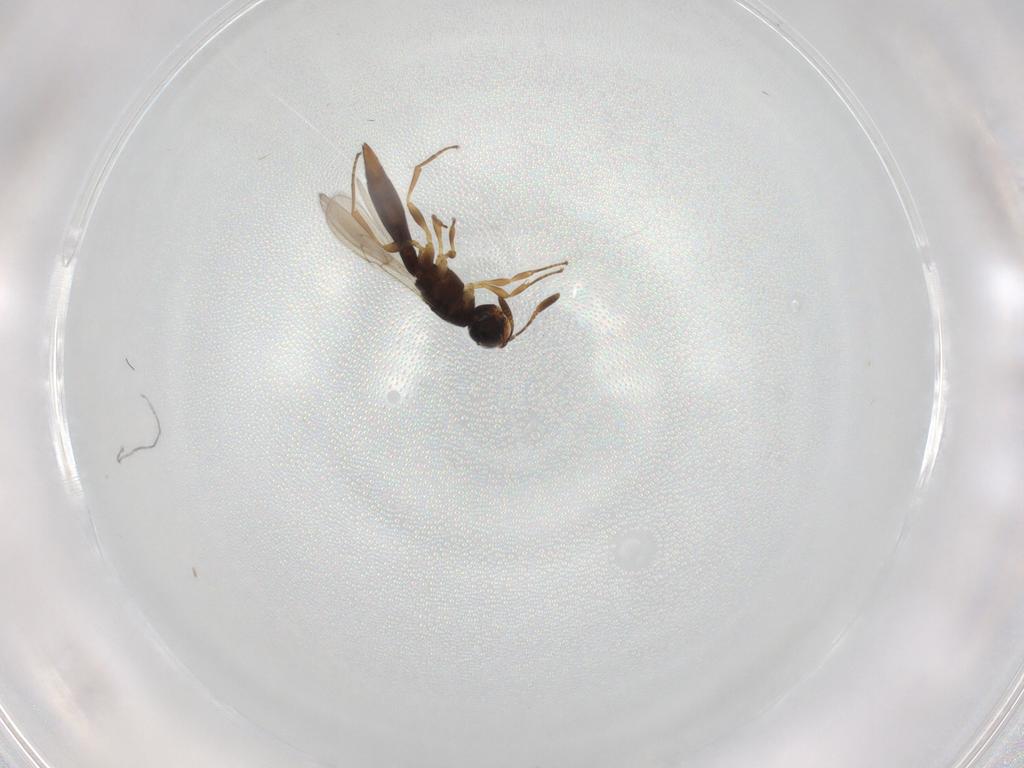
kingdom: Animalia
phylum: Arthropoda
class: Insecta
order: Hymenoptera
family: Scelionidae
